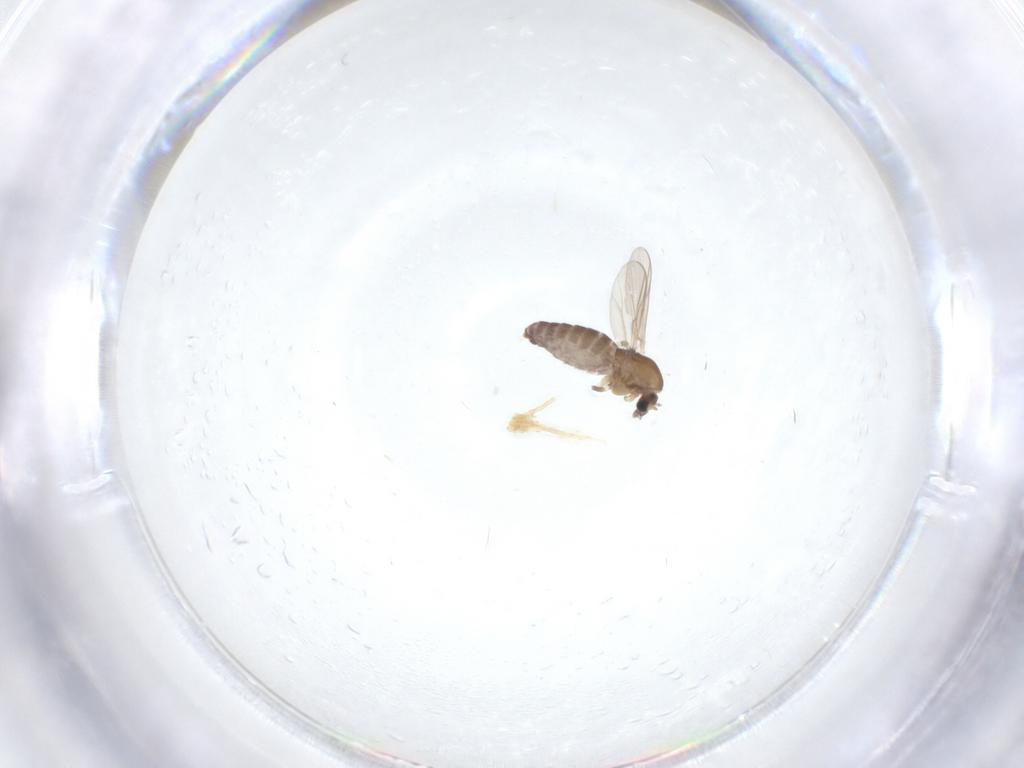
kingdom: Animalia
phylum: Arthropoda
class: Insecta
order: Diptera
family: Chironomidae
